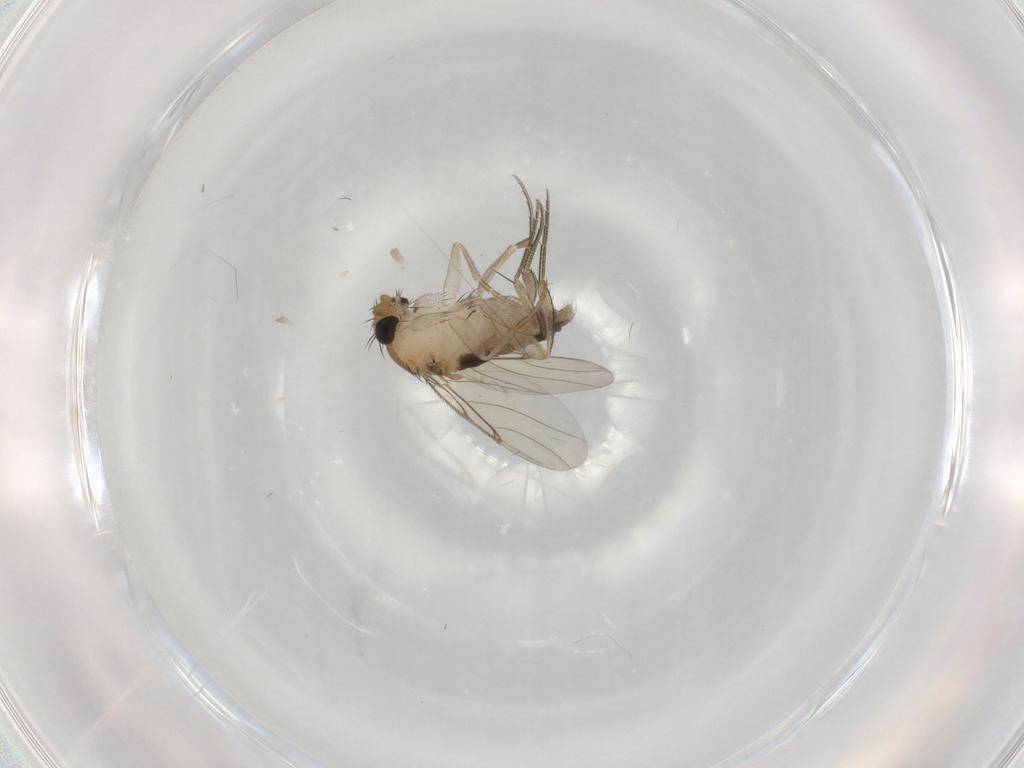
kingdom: Animalia
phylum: Arthropoda
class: Insecta
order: Diptera
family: Phoridae
